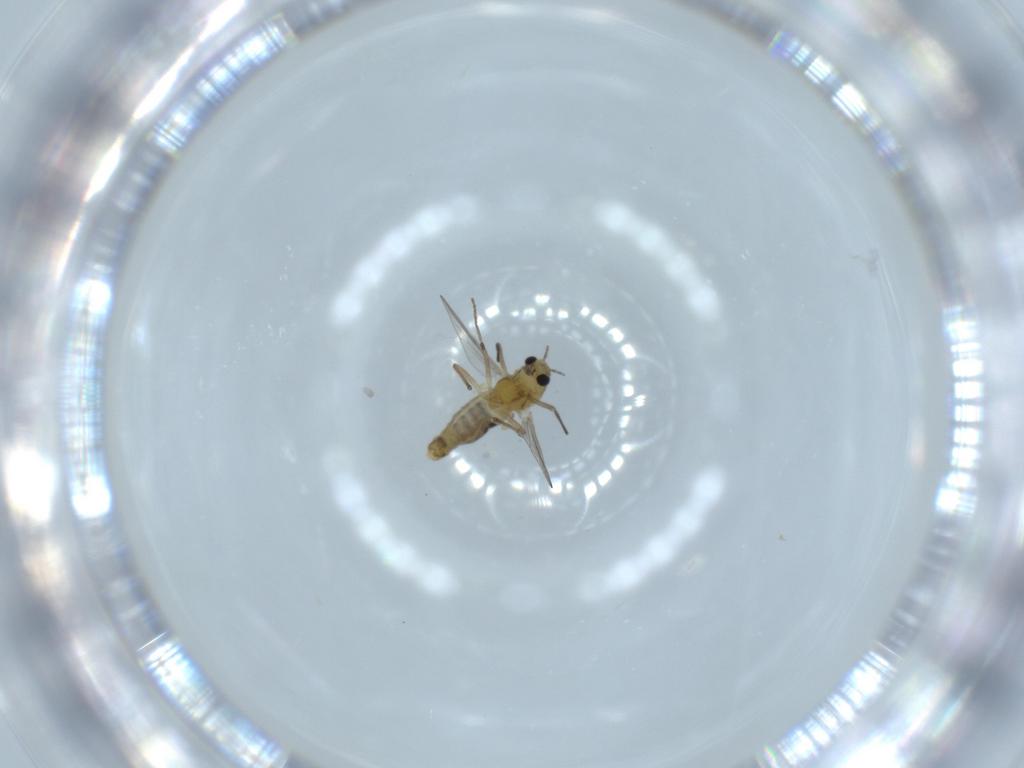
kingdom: Animalia
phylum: Arthropoda
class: Insecta
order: Diptera
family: Chironomidae
